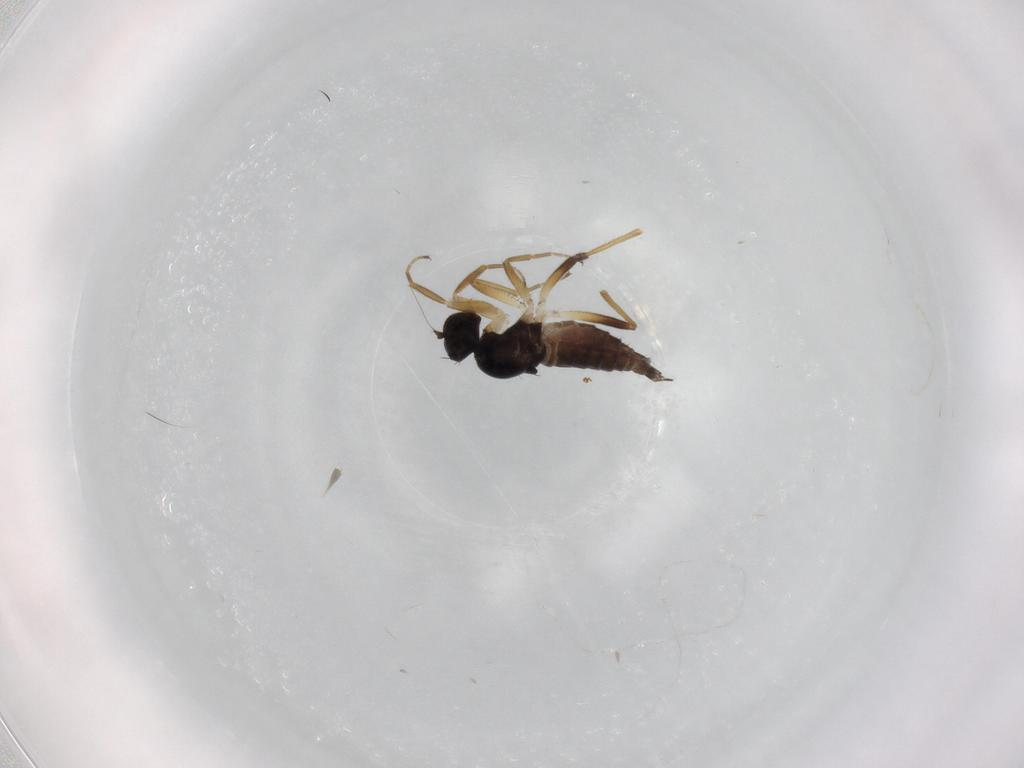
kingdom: Animalia
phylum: Arthropoda
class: Insecta
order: Diptera
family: Hybotidae
